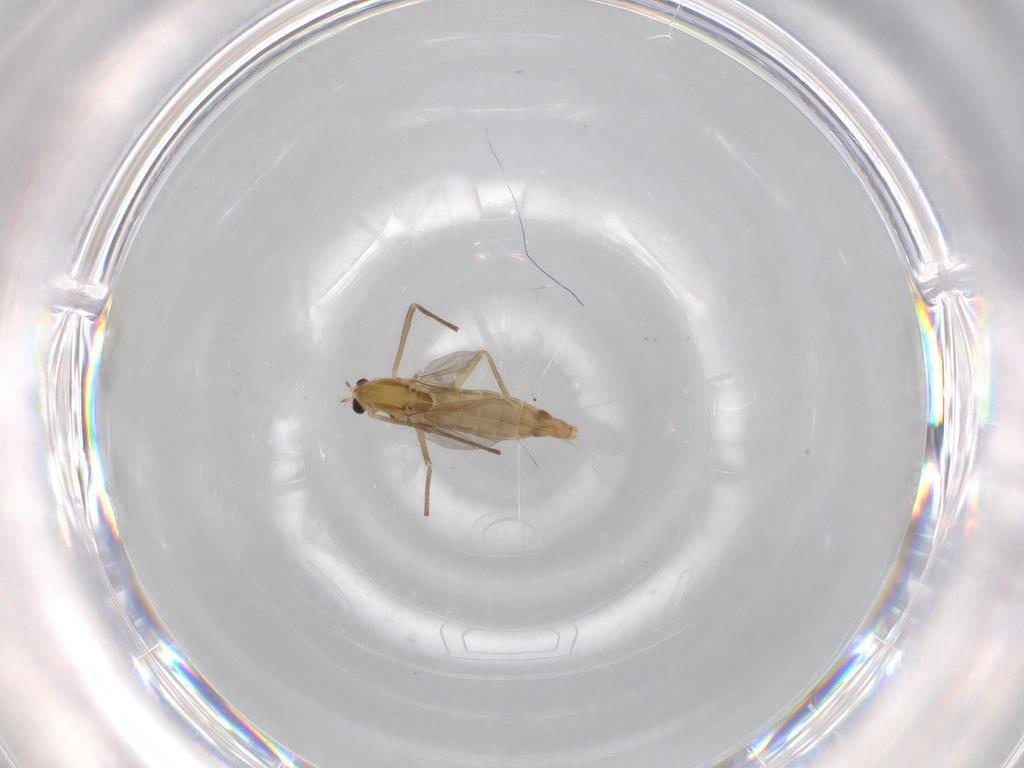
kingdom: Animalia
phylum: Arthropoda
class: Insecta
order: Diptera
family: Chironomidae
